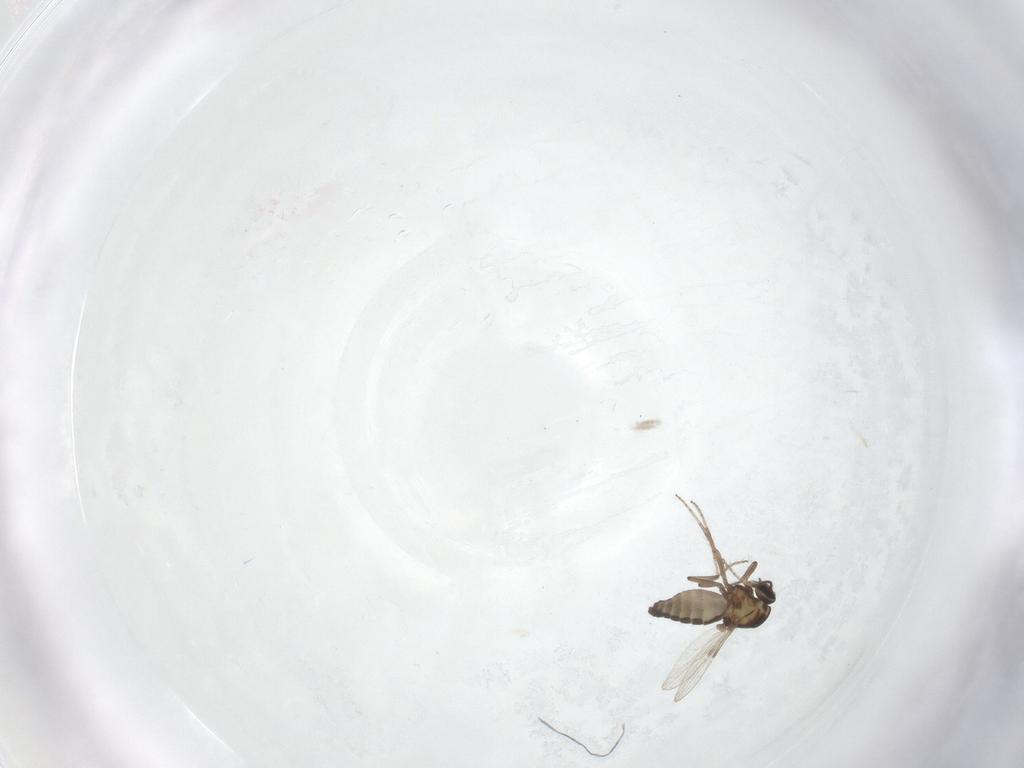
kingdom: Animalia
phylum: Arthropoda
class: Insecta
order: Diptera
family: Ceratopogonidae
